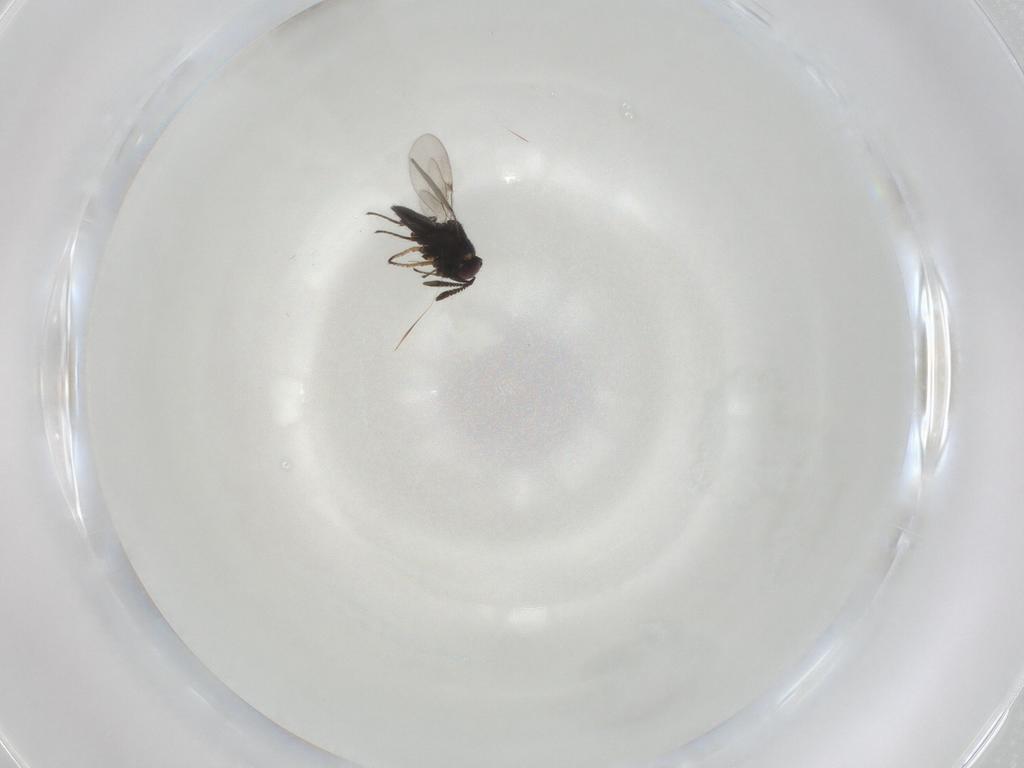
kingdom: Animalia
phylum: Arthropoda
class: Insecta
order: Hymenoptera
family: Encyrtidae
